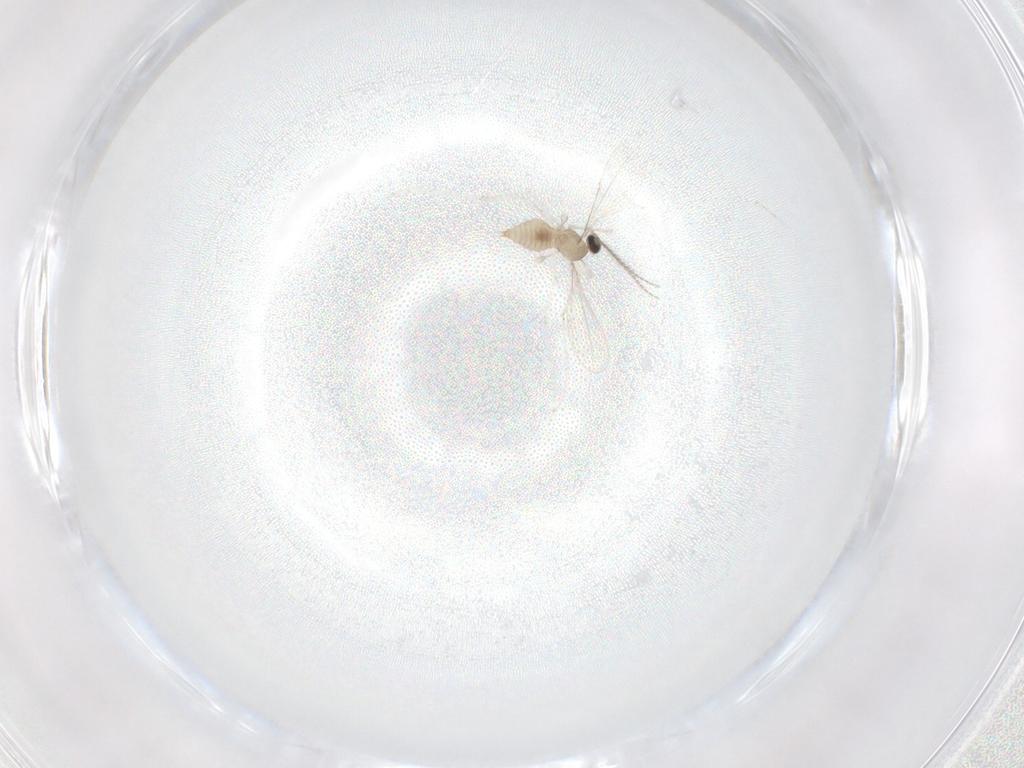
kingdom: Animalia
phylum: Arthropoda
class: Insecta
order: Diptera
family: Cecidomyiidae
